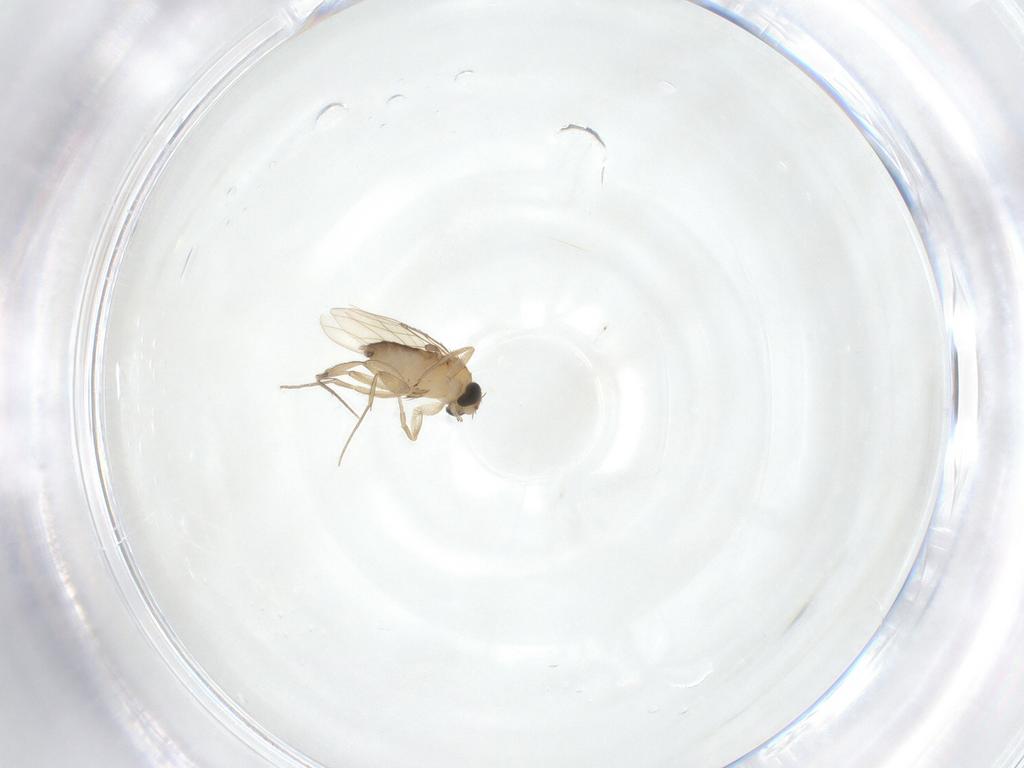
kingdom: Animalia
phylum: Arthropoda
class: Insecta
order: Diptera
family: Phoridae
